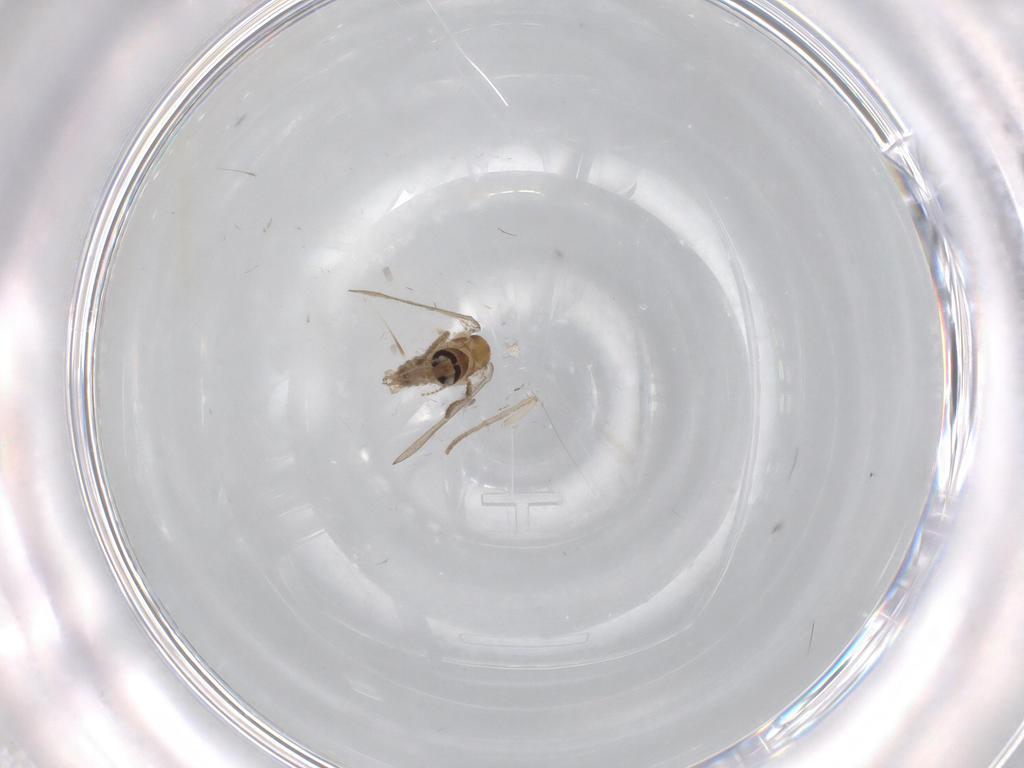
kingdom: Animalia
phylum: Arthropoda
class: Insecta
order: Diptera
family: Psychodidae
